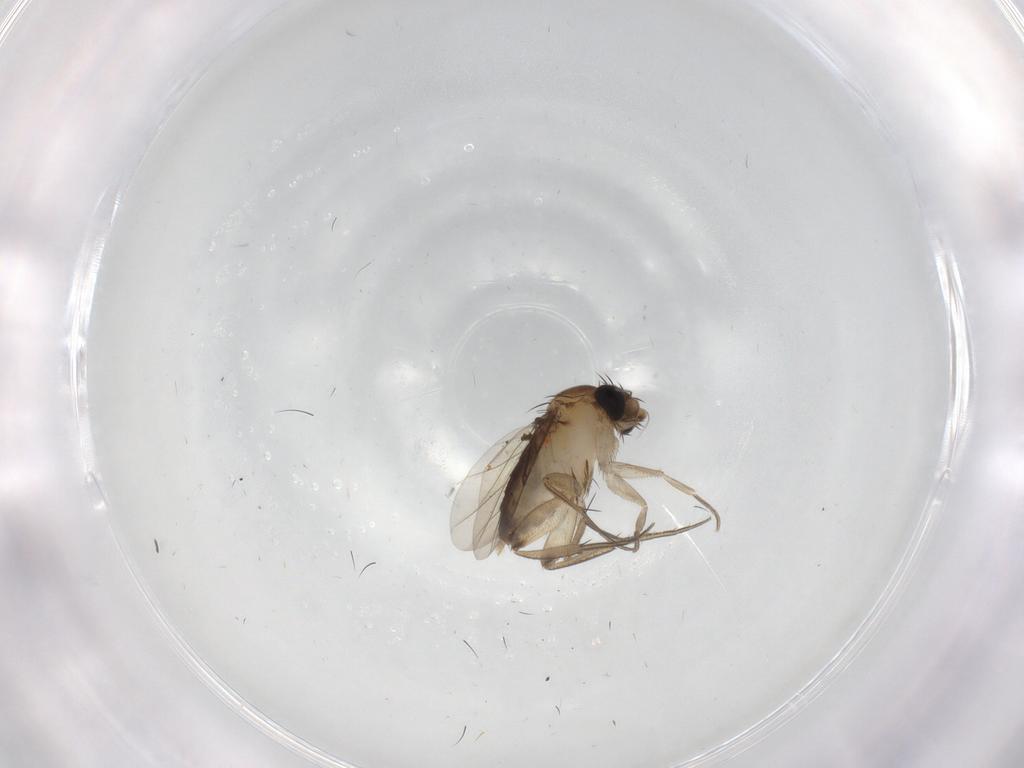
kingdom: Animalia
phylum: Arthropoda
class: Insecta
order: Diptera
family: Phoridae
